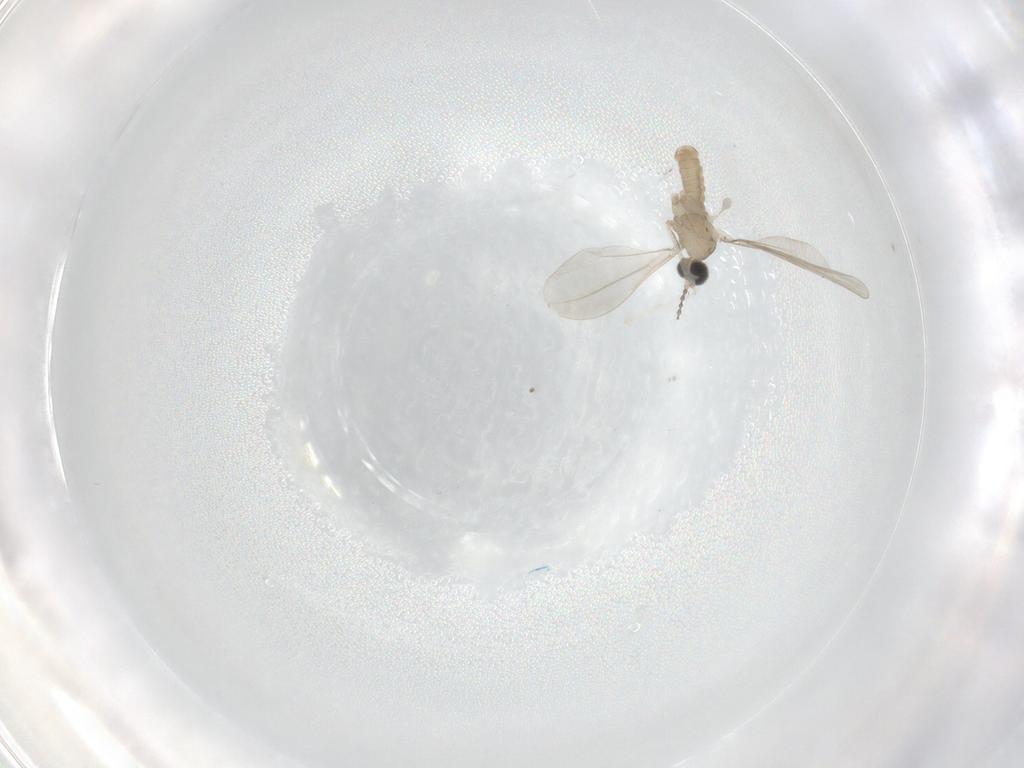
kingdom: Animalia
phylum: Arthropoda
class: Insecta
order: Diptera
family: Cecidomyiidae
